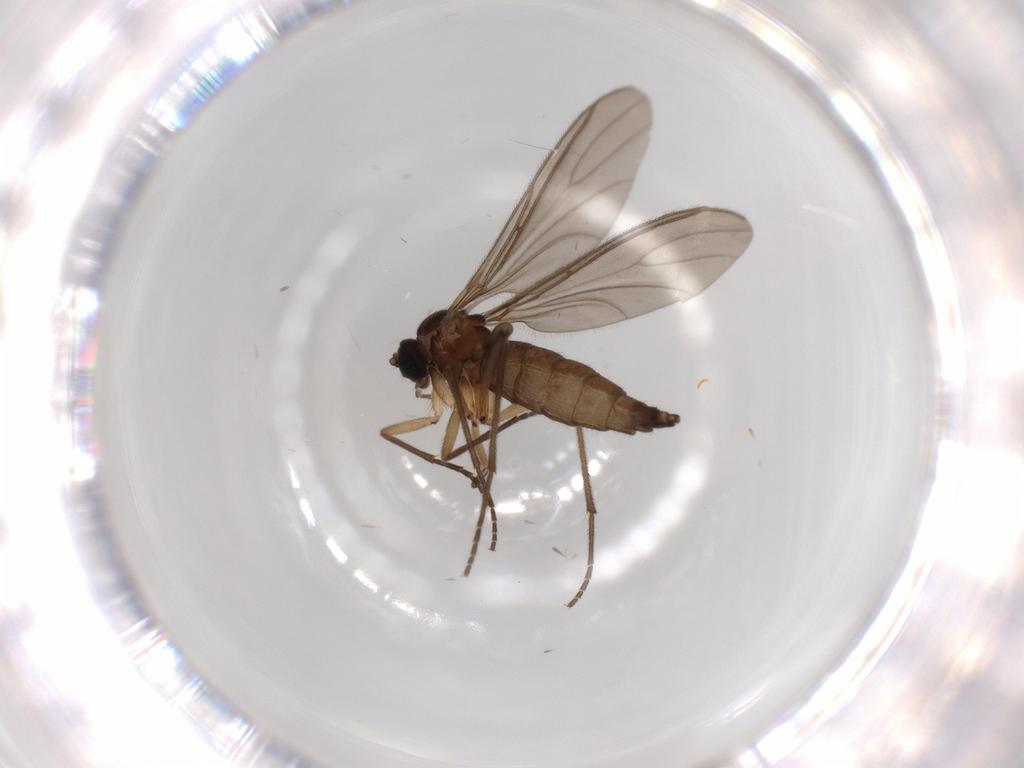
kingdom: Animalia
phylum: Arthropoda
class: Insecta
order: Diptera
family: Sciaridae
